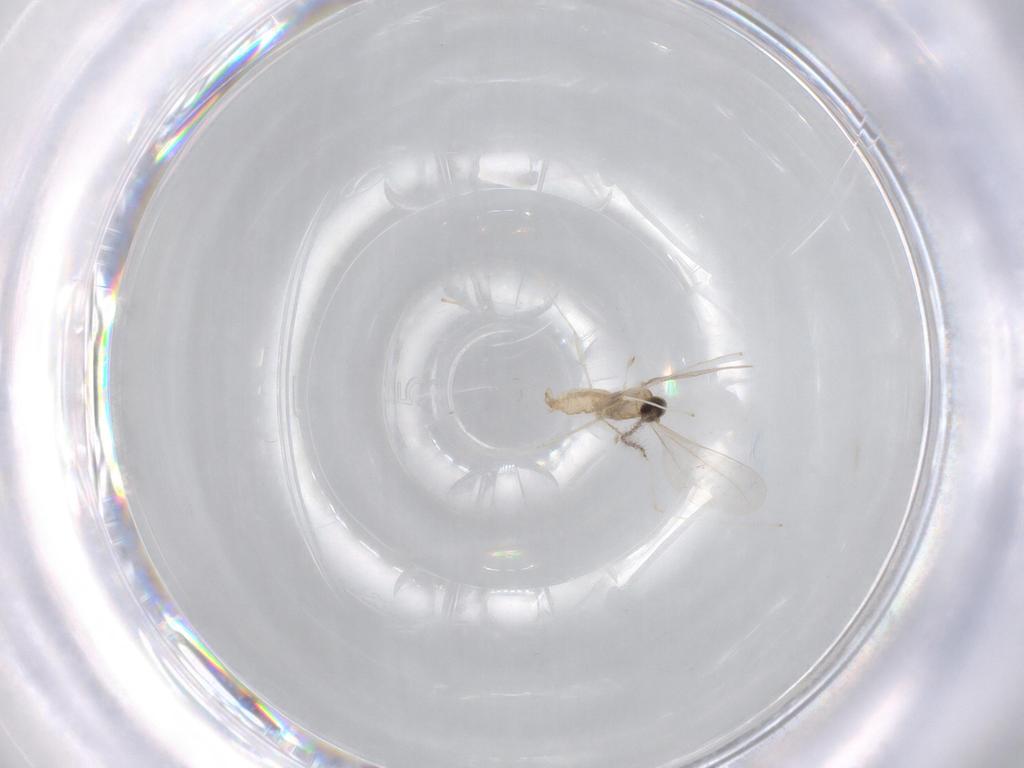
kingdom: Animalia
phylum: Arthropoda
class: Insecta
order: Diptera
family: Cecidomyiidae
